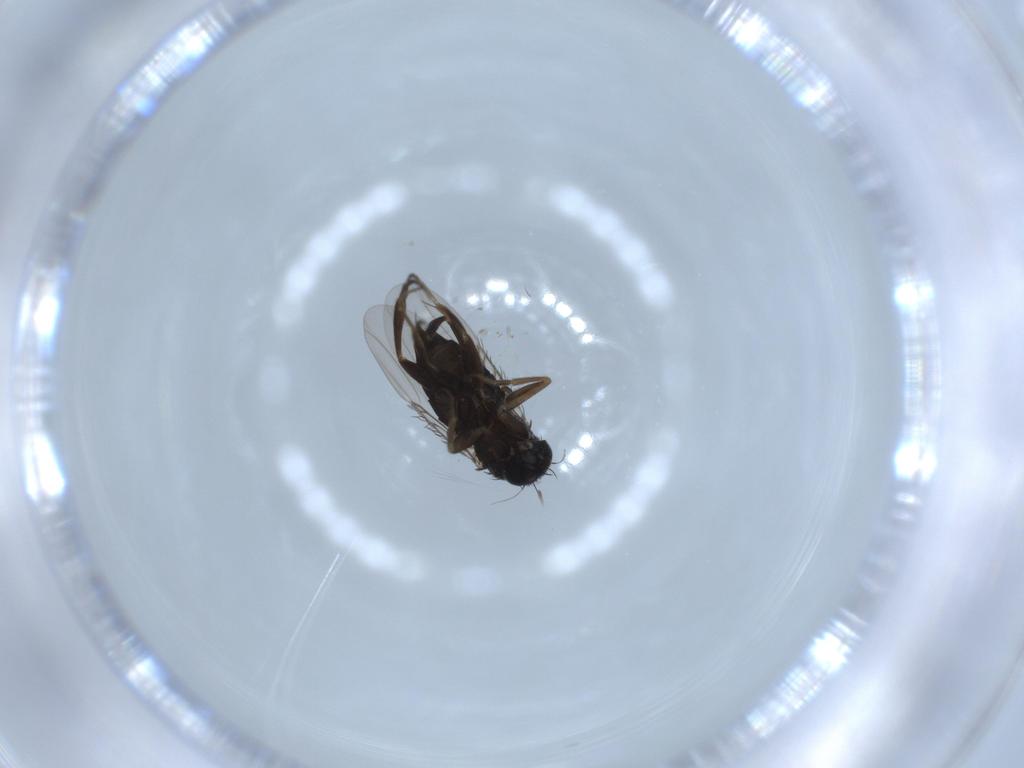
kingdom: Animalia
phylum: Arthropoda
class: Insecta
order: Diptera
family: Phoridae
